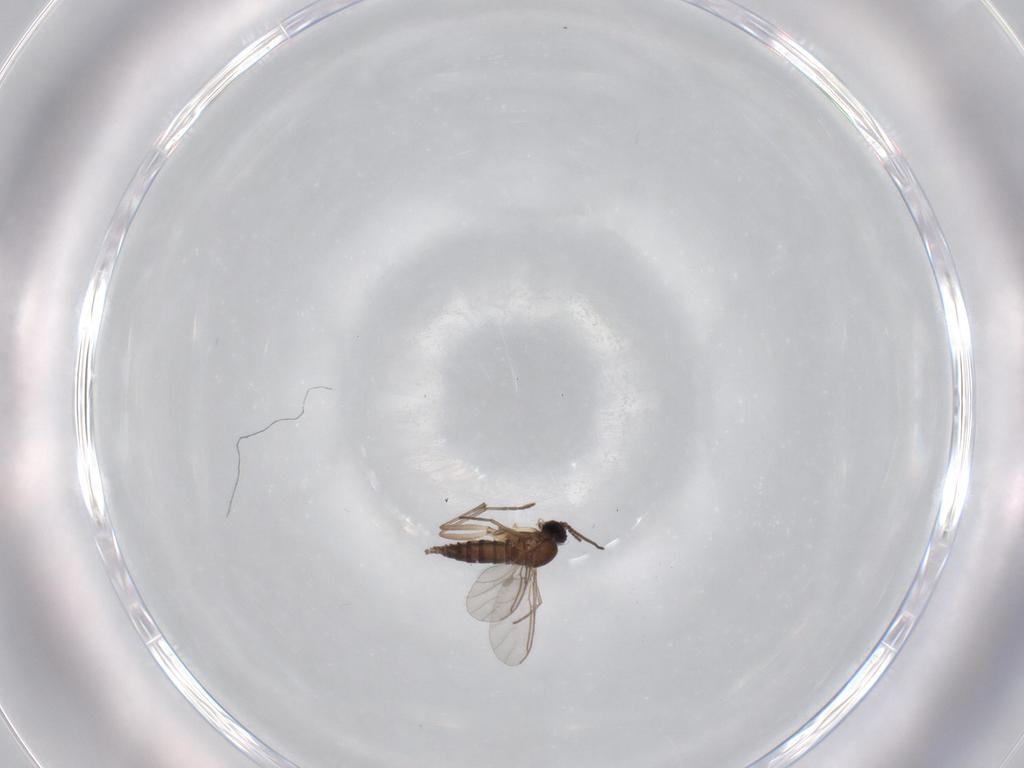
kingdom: Animalia
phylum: Arthropoda
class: Insecta
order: Diptera
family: Sciaridae
